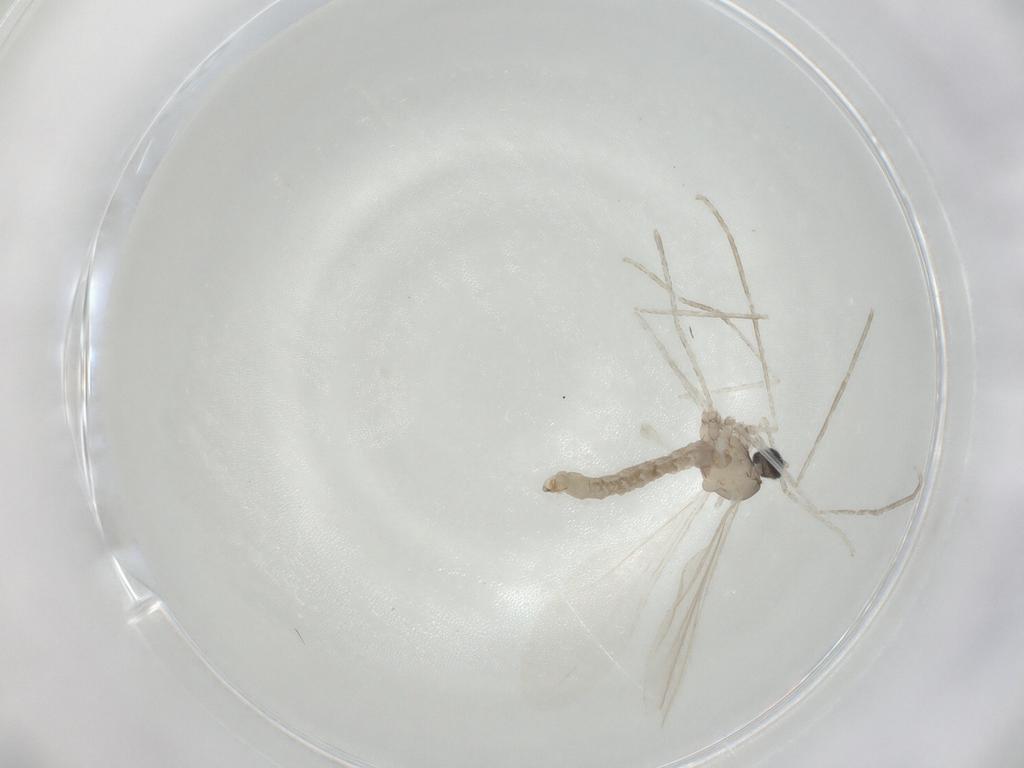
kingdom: Animalia
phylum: Arthropoda
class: Insecta
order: Diptera
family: Cecidomyiidae
